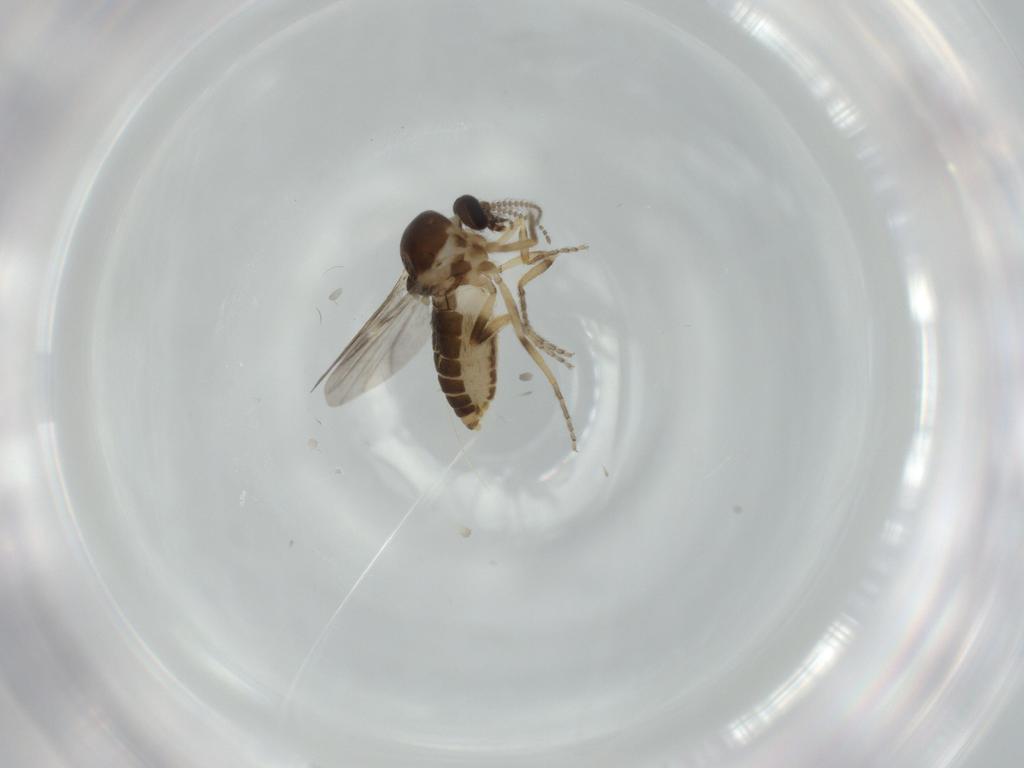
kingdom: Animalia
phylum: Arthropoda
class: Insecta
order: Diptera
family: Ceratopogonidae
